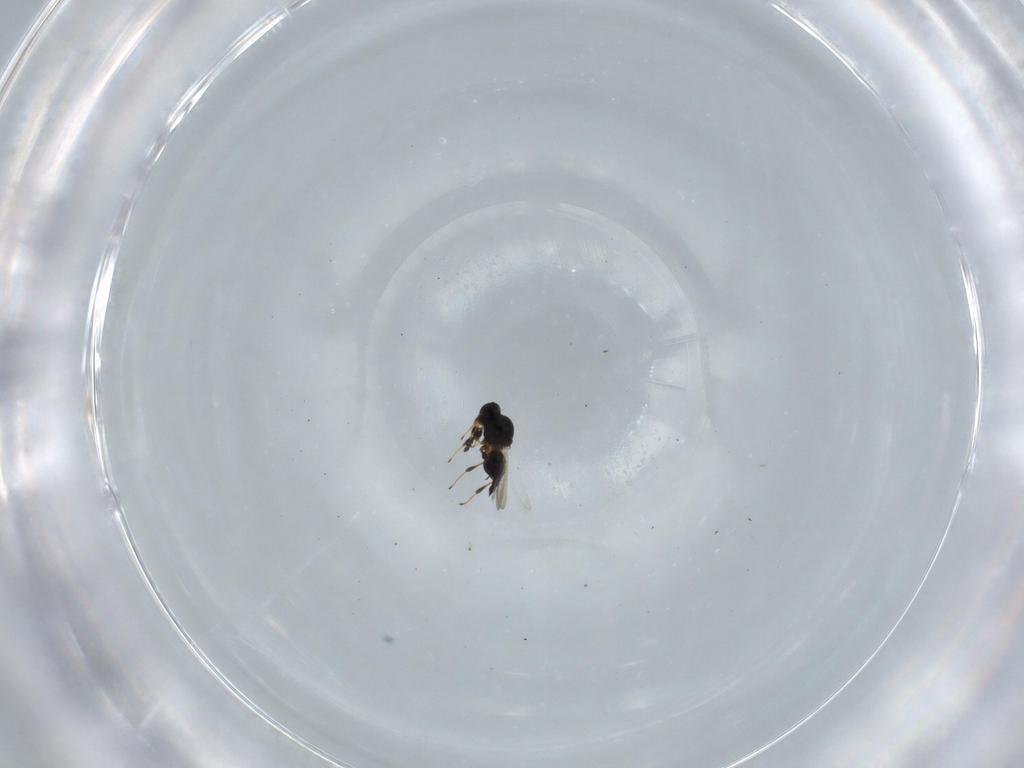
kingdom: Animalia
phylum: Arthropoda
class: Insecta
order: Hymenoptera
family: Platygastridae
